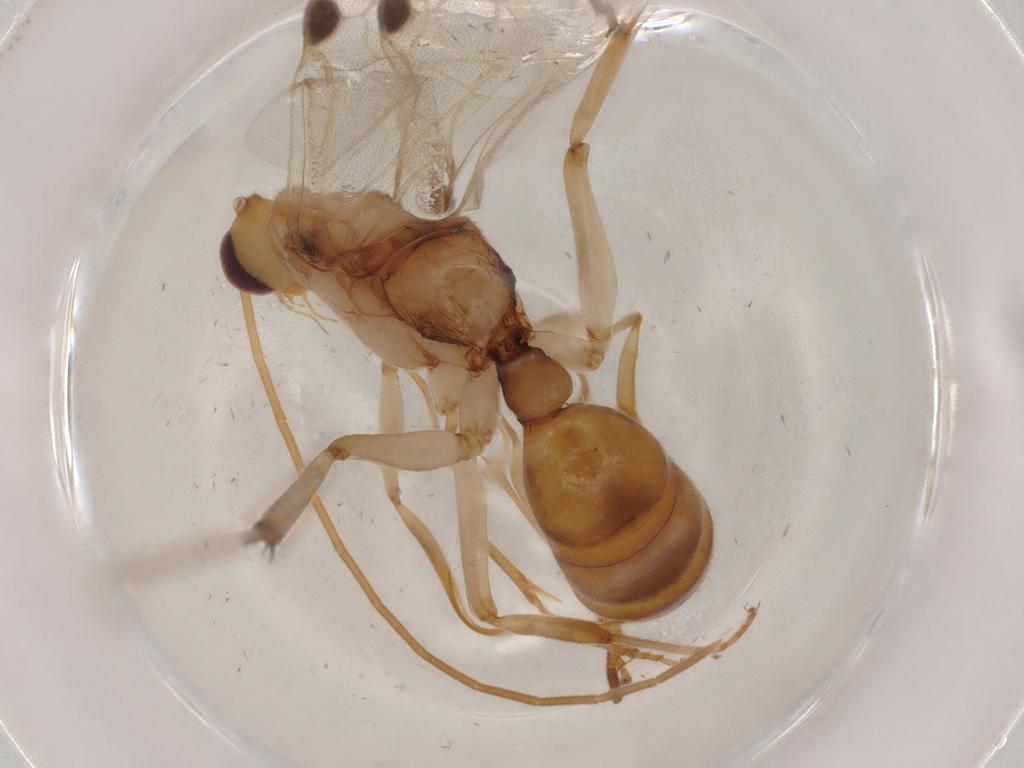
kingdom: Animalia
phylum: Arthropoda
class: Insecta
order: Hymenoptera
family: Formicidae
